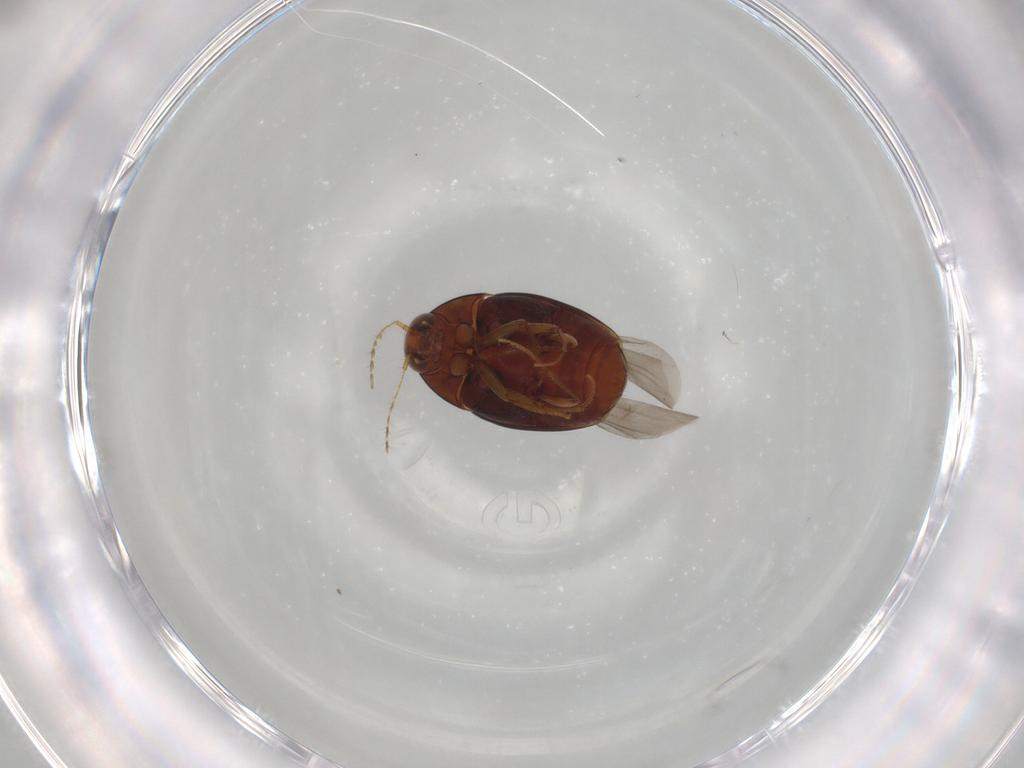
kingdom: Animalia
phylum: Arthropoda
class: Insecta
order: Coleoptera
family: Staphylinidae
